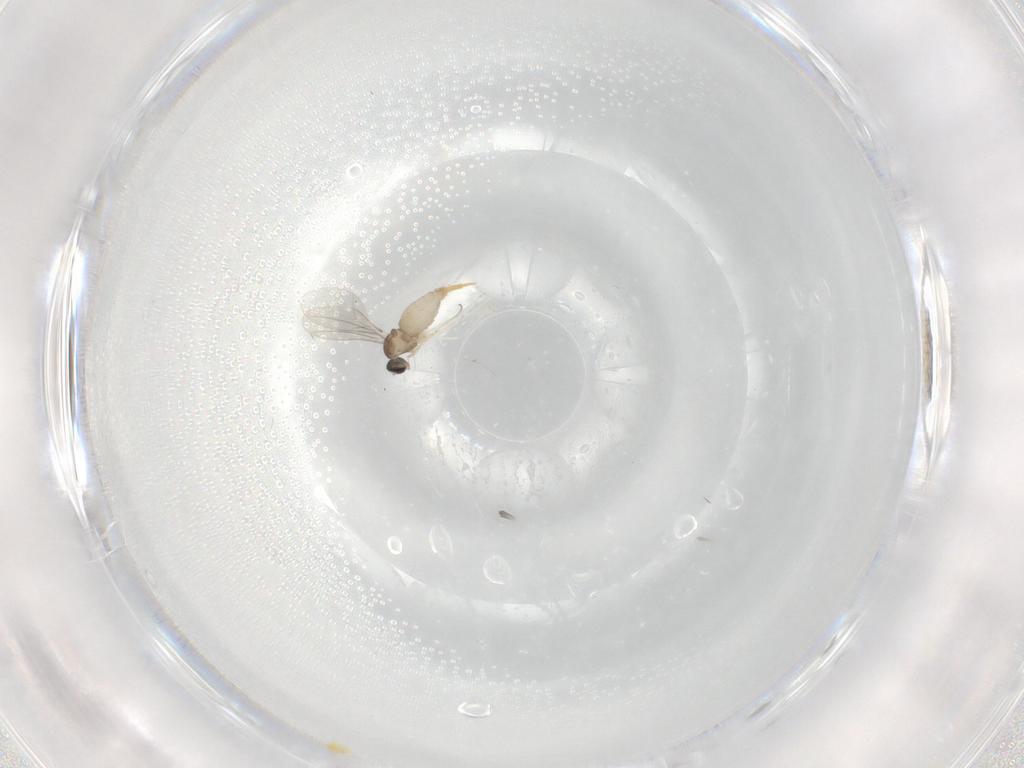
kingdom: Animalia
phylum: Arthropoda
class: Insecta
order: Diptera
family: Cecidomyiidae
